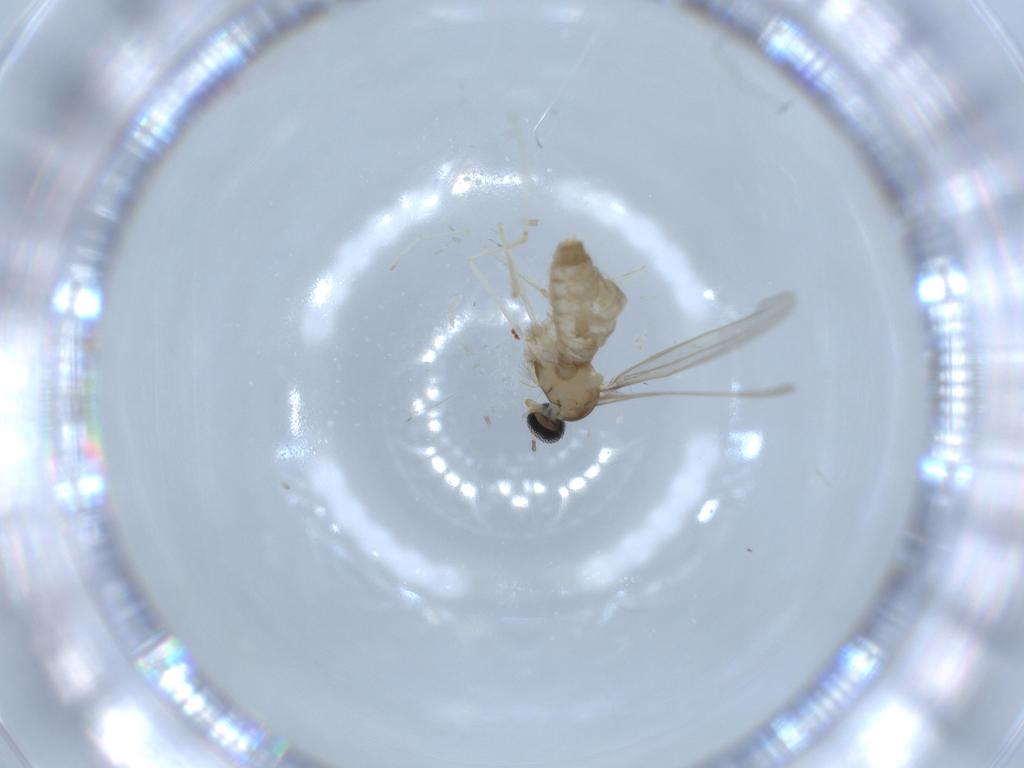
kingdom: Animalia
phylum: Arthropoda
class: Insecta
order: Diptera
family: Cecidomyiidae
